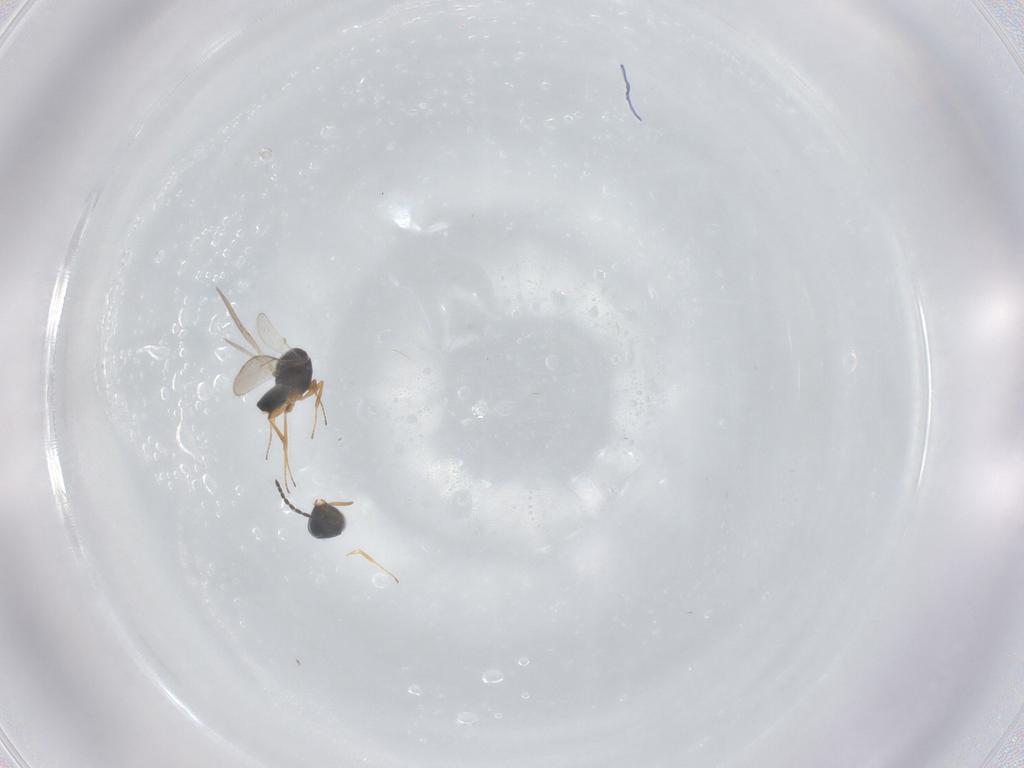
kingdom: Animalia
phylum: Arthropoda
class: Insecta
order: Hymenoptera
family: Scelionidae
